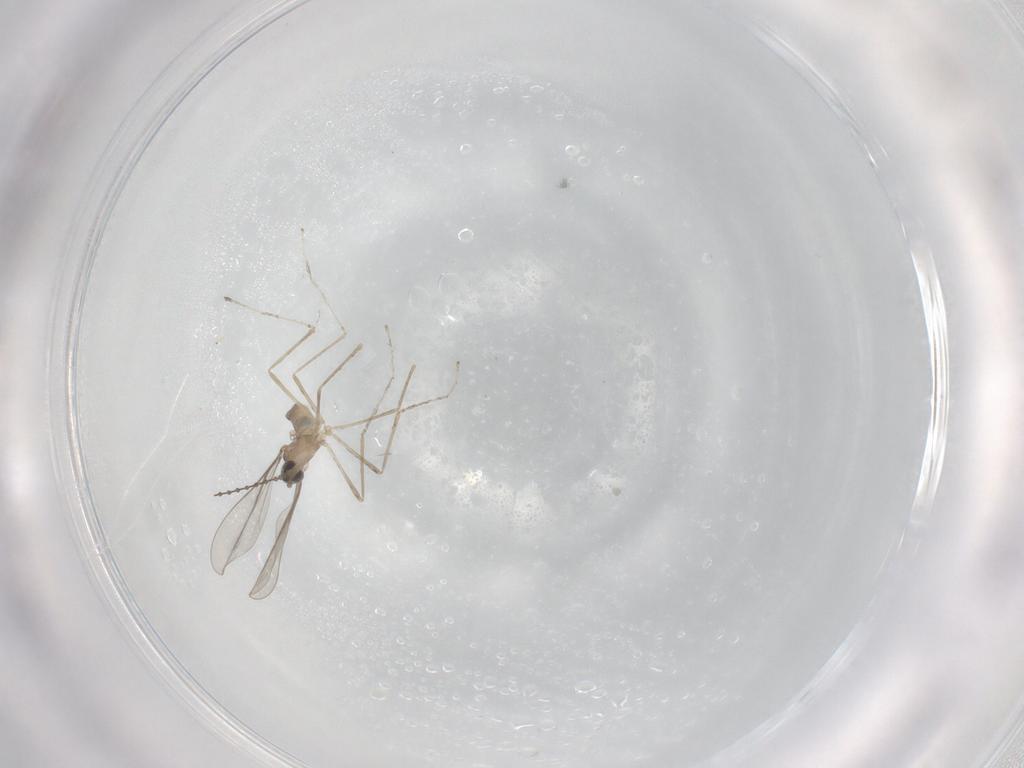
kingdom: Animalia
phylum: Arthropoda
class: Insecta
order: Diptera
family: Cecidomyiidae
